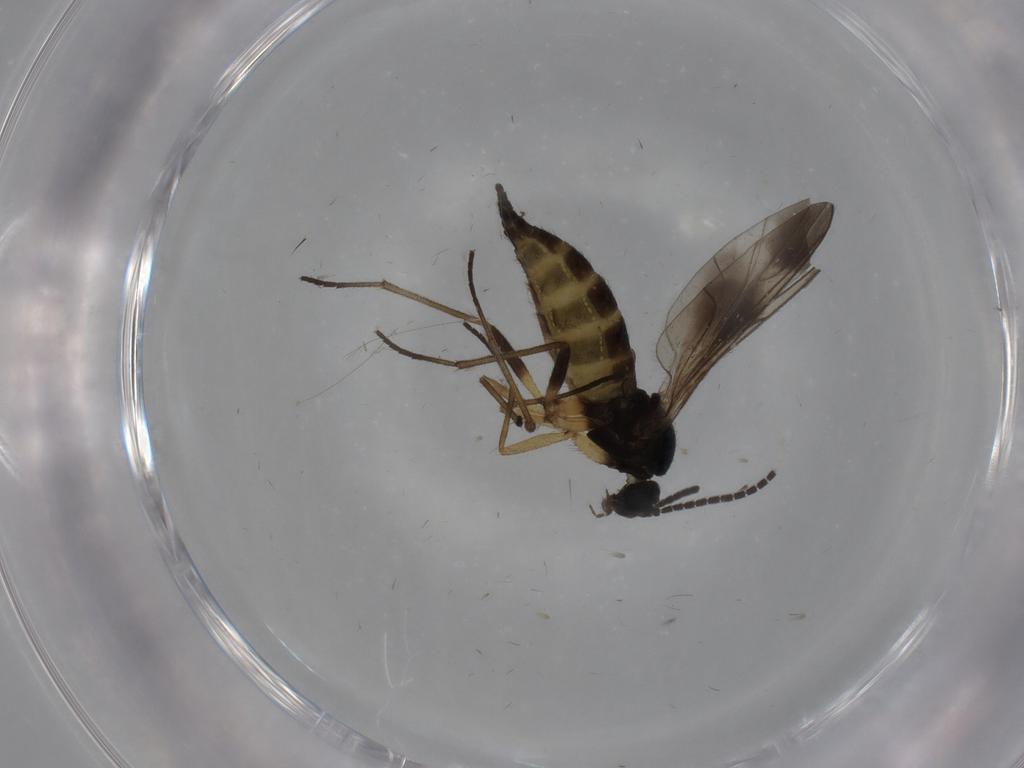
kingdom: Animalia
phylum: Arthropoda
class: Insecta
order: Diptera
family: Sciaridae
